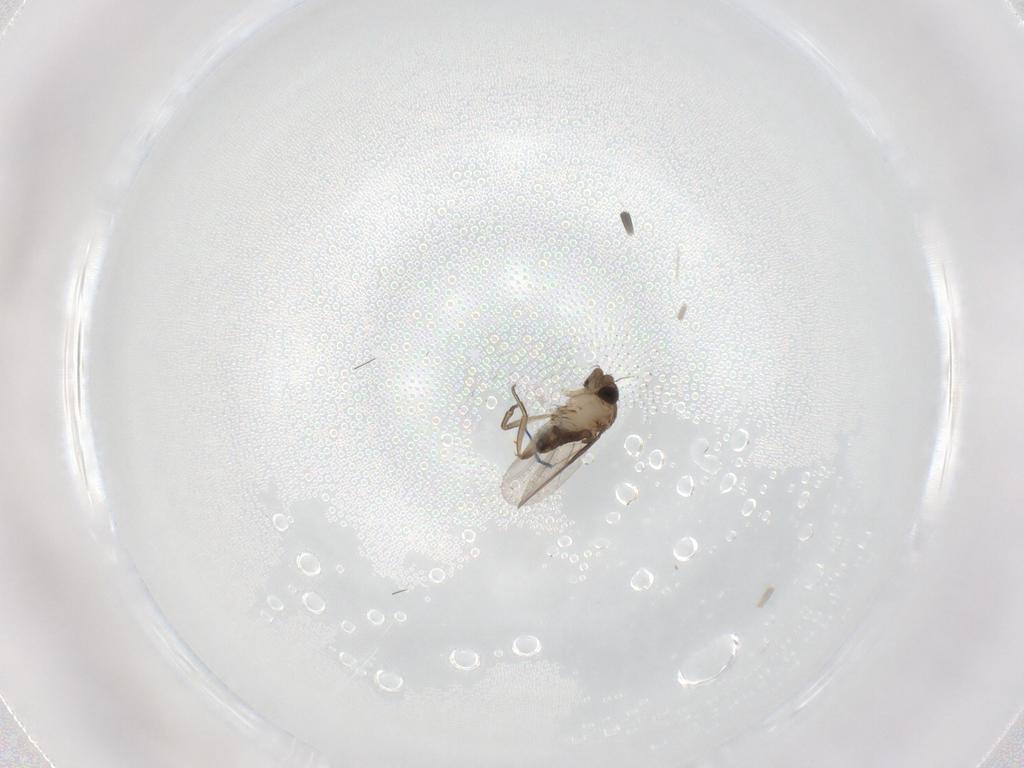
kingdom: Animalia
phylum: Arthropoda
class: Insecta
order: Diptera
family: Phoridae
